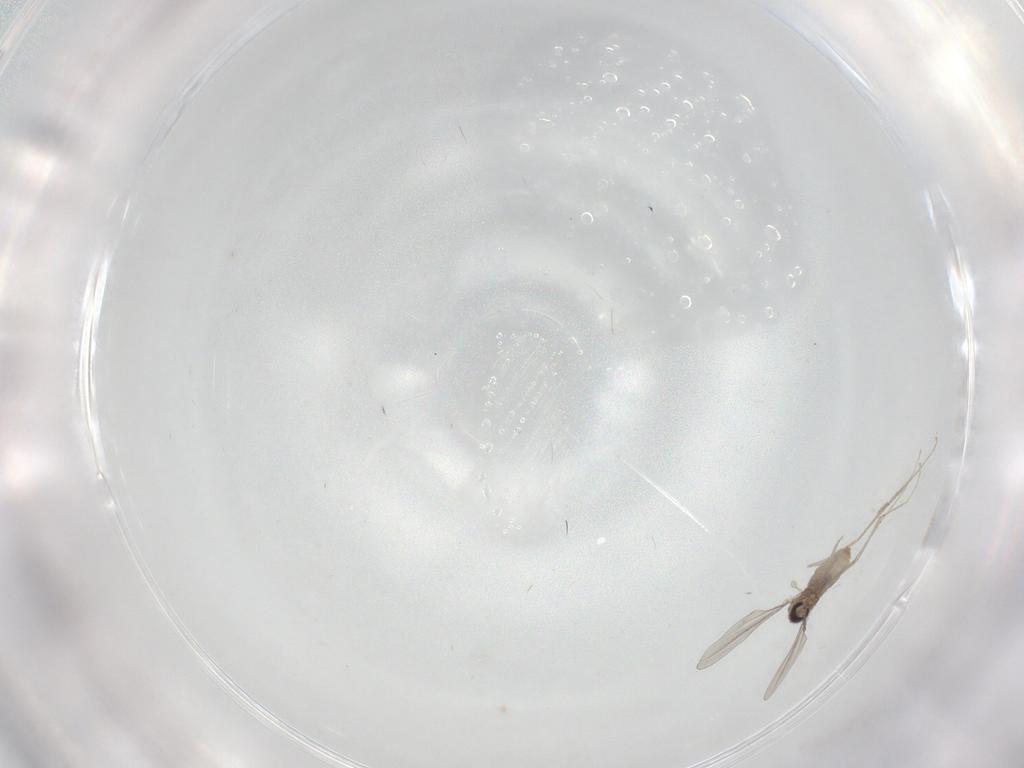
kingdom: Animalia
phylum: Arthropoda
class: Insecta
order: Diptera
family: Cecidomyiidae
